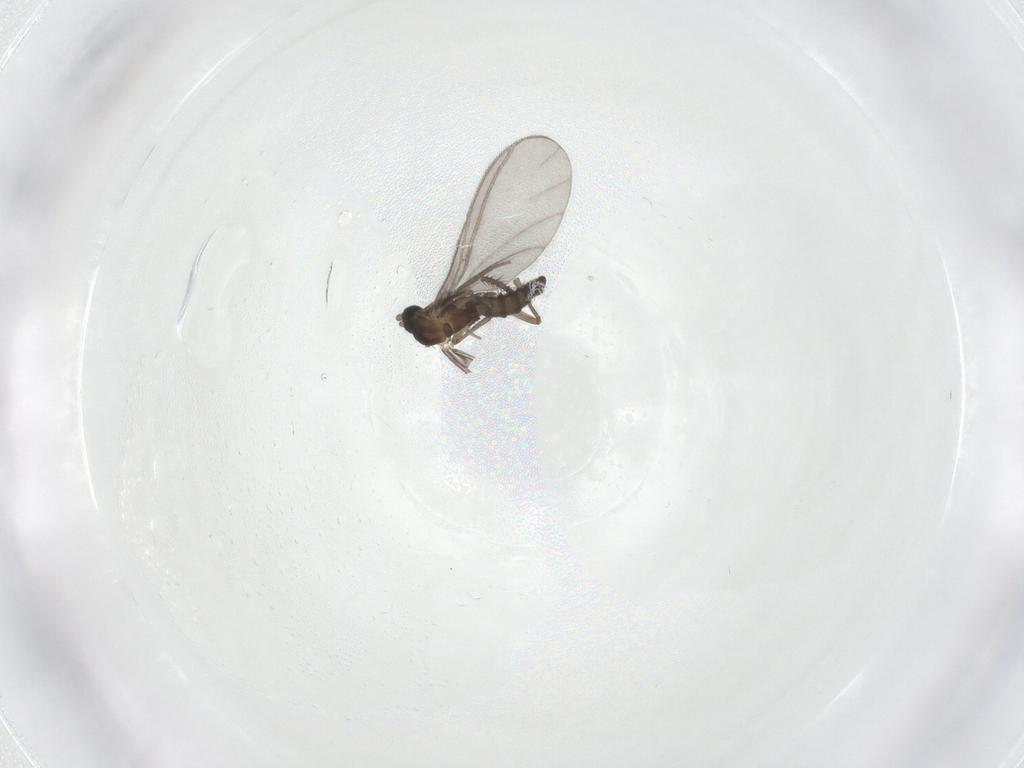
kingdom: Animalia
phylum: Arthropoda
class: Insecta
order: Diptera
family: Sciaridae
